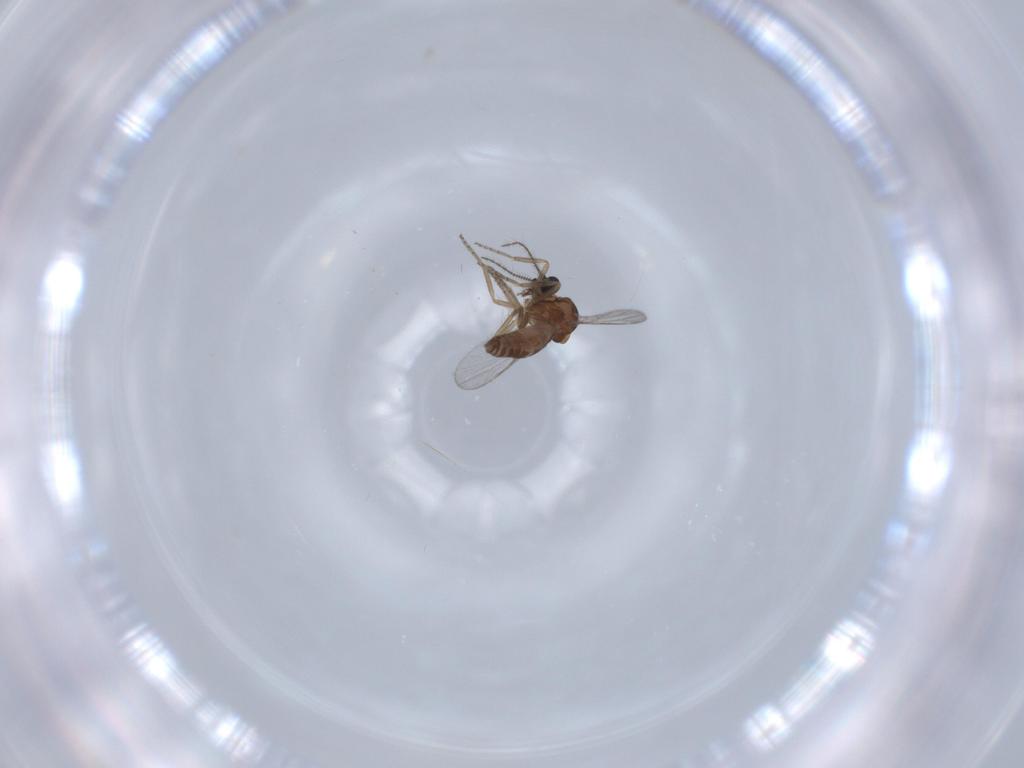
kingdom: Animalia
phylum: Arthropoda
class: Insecta
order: Diptera
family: Ceratopogonidae
